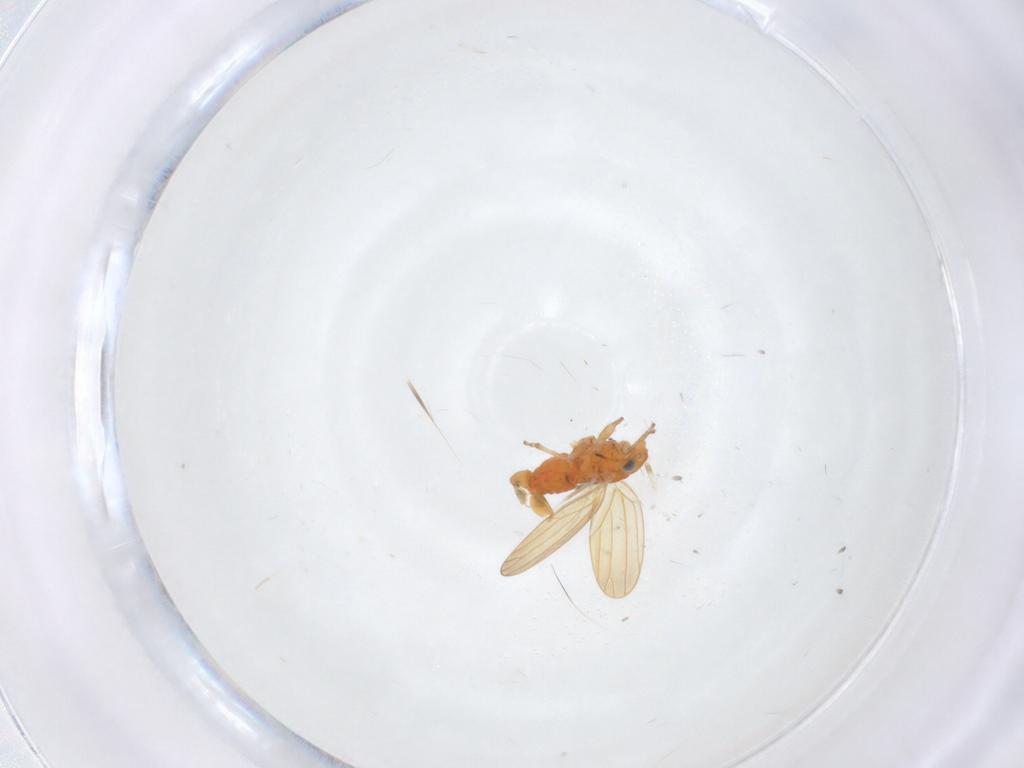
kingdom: Animalia
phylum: Arthropoda
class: Insecta
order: Hemiptera
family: Aphalaridae
